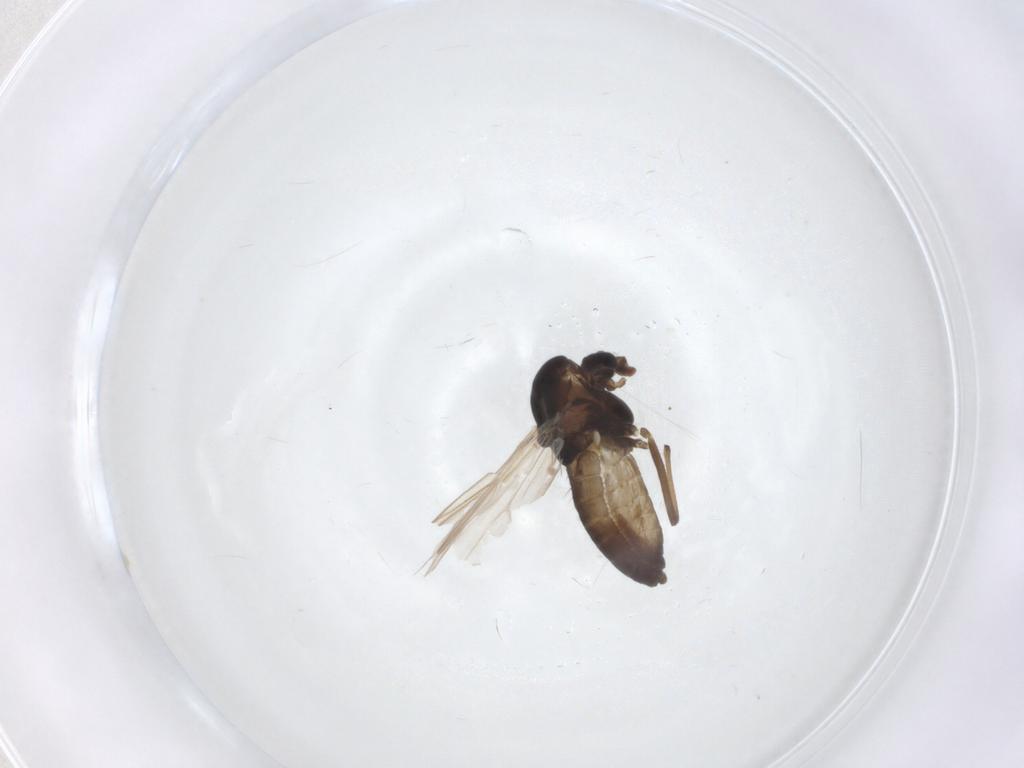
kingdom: Animalia
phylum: Arthropoda
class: Insecta
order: Diptera
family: Chironomidae
